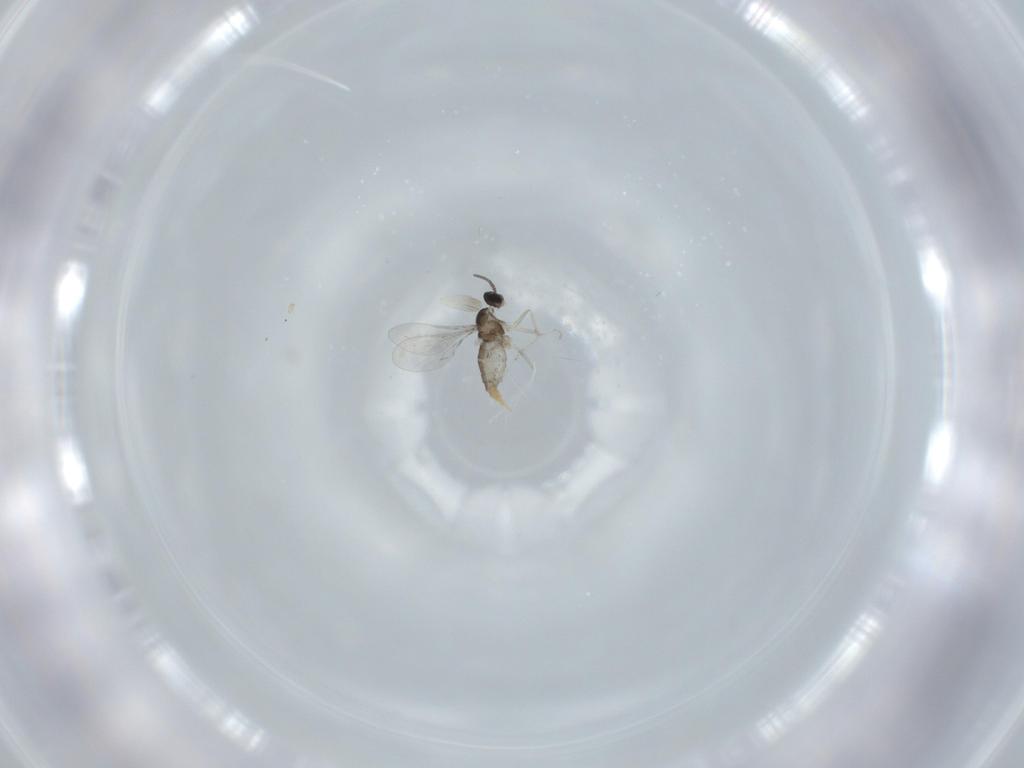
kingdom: Animalia
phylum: Arthropoda
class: Insecta
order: Diptera
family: Cecidomyiidae
